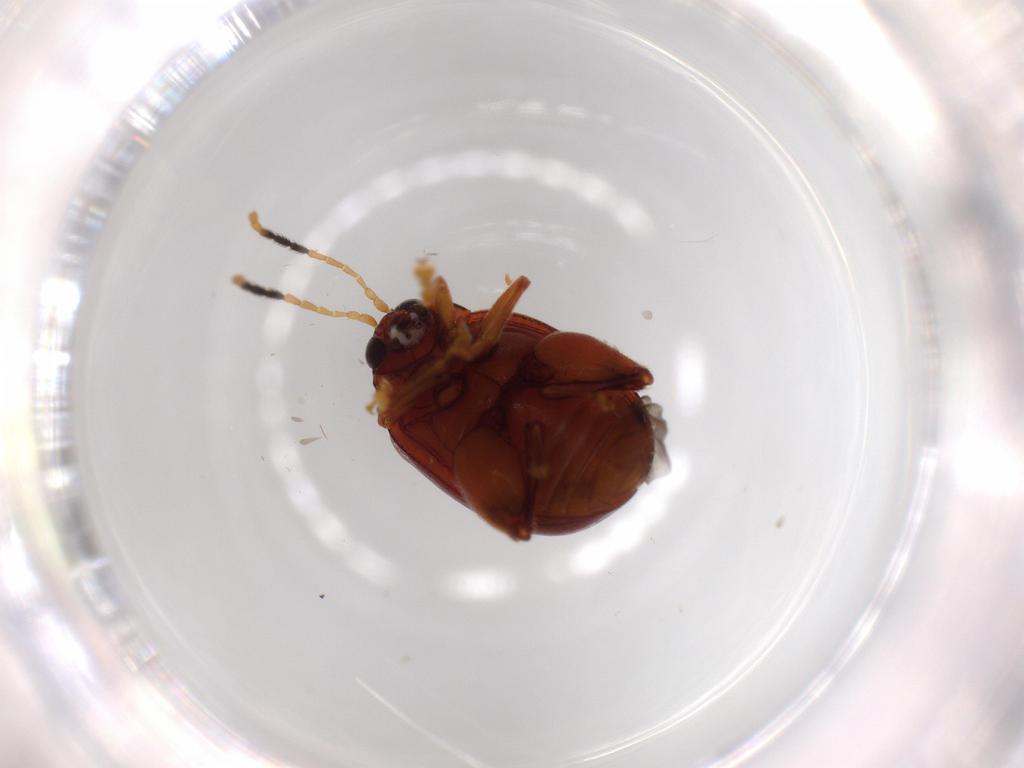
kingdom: Animalia
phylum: Arthropoda
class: Insecta
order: Coleoptera
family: Chrysomelidae
